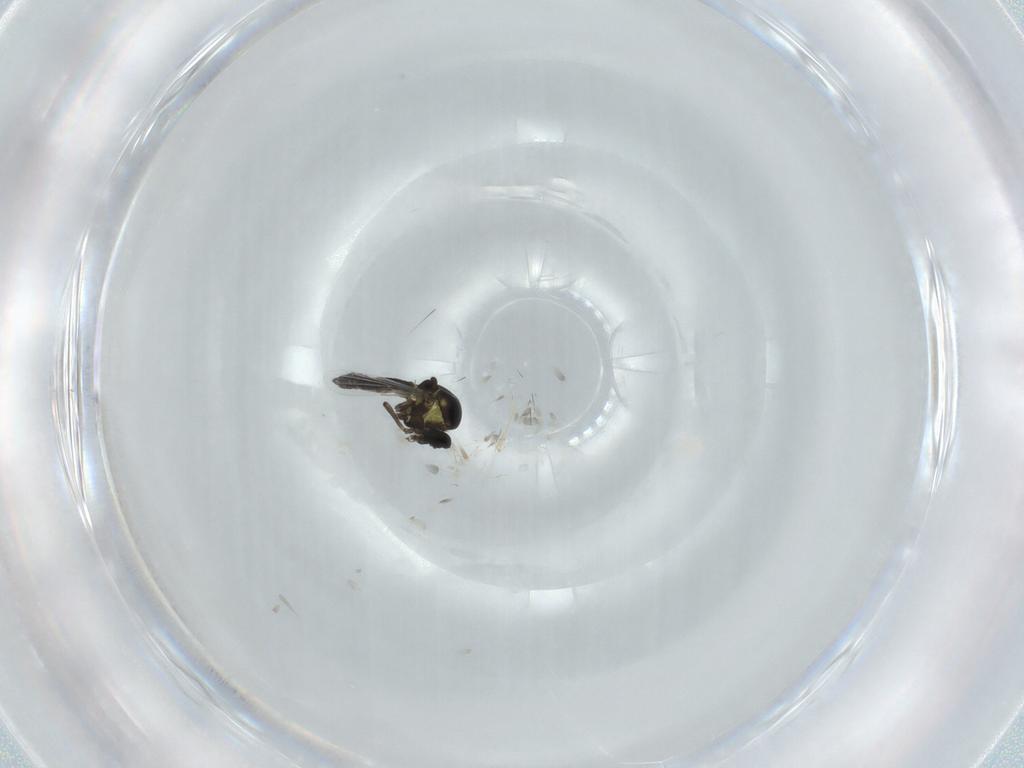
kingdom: Animalia
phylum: Arthropoda
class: Insecta
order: Diptera
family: Ceratopogonidae
